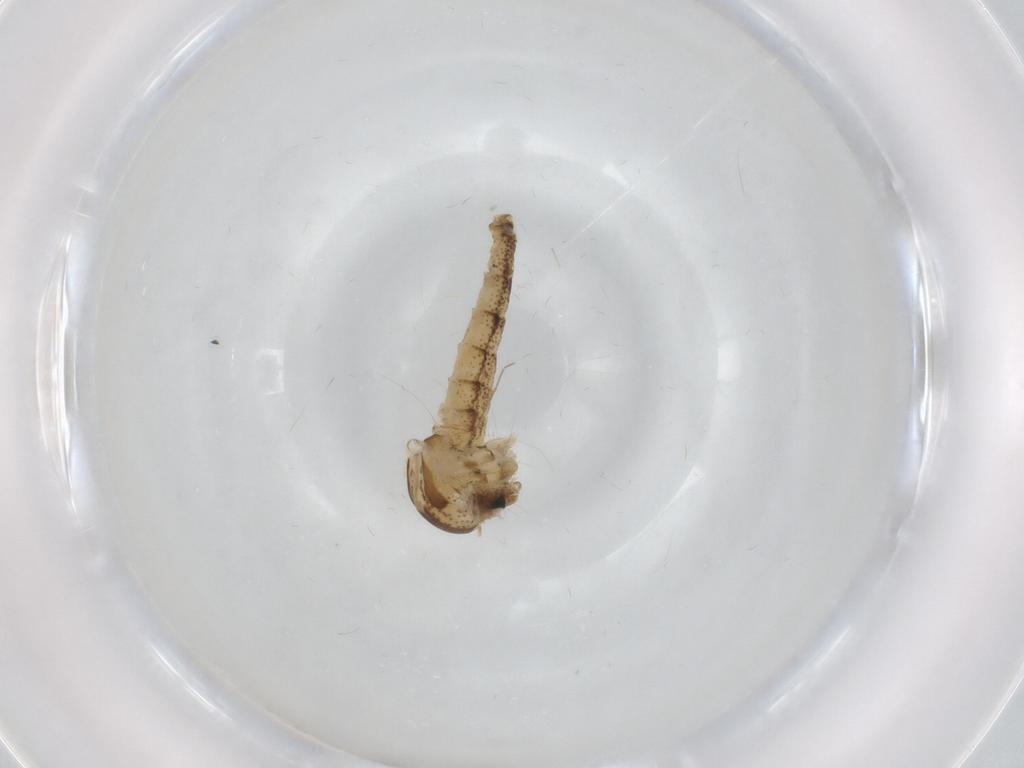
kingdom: Animalia
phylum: Arthropoda
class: Insecta
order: Diptera
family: Chaoboridae
